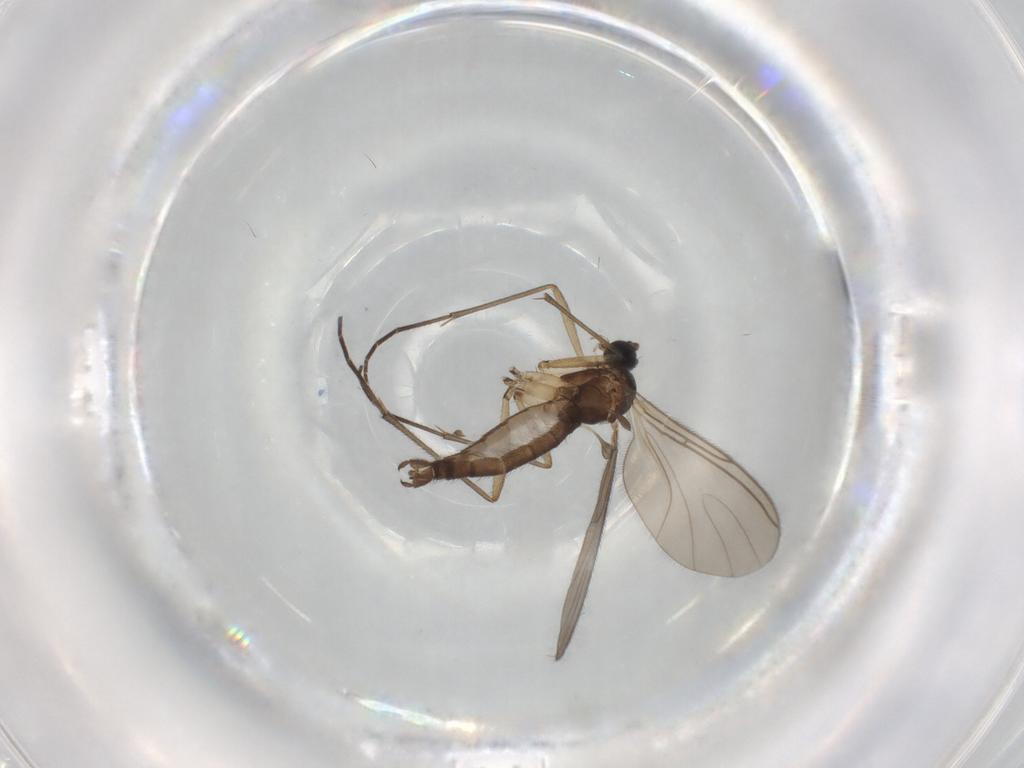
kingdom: Animalia
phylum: Arthropoda
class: Insecta
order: Diptera
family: Sciaridae
